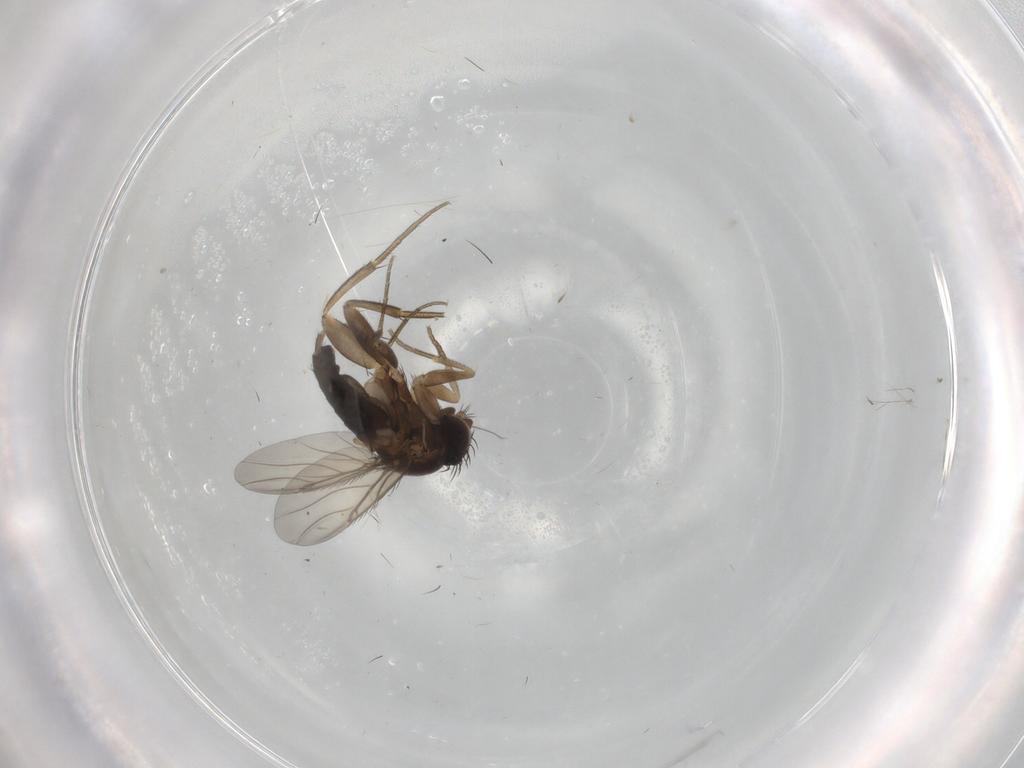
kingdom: Animalia
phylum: Arthropoda
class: Insecta
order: Diptera
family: Phoridae
